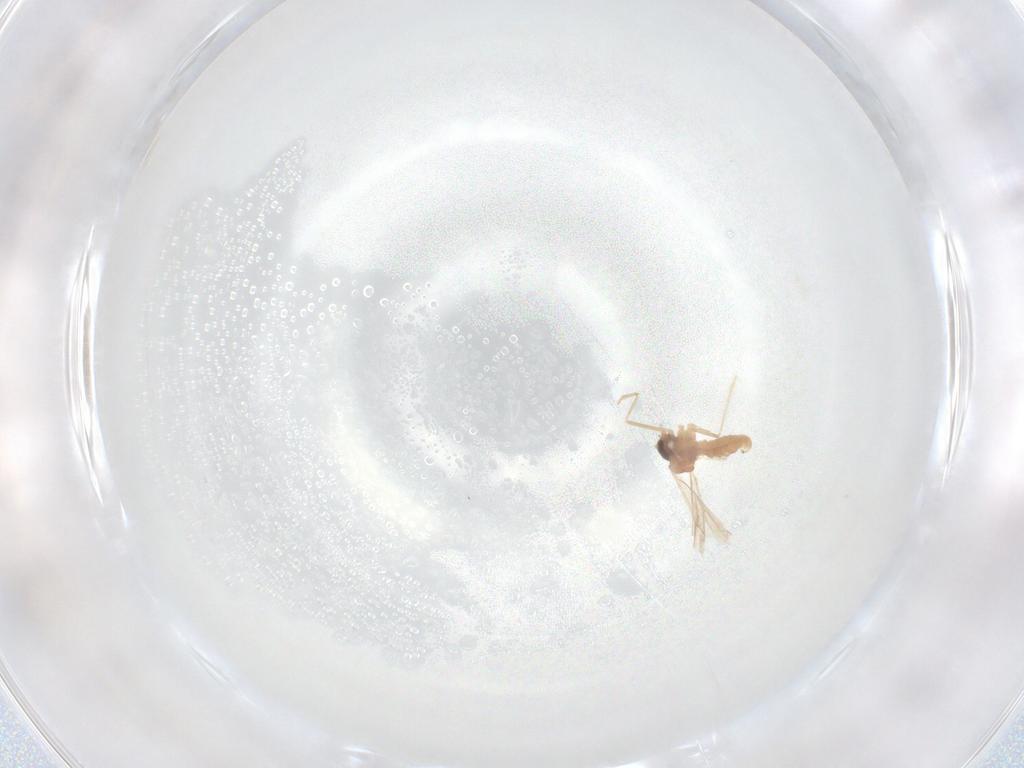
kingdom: Animalia
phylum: Arthropoda
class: Insecta
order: Diptera
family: Cecidomyiidae
